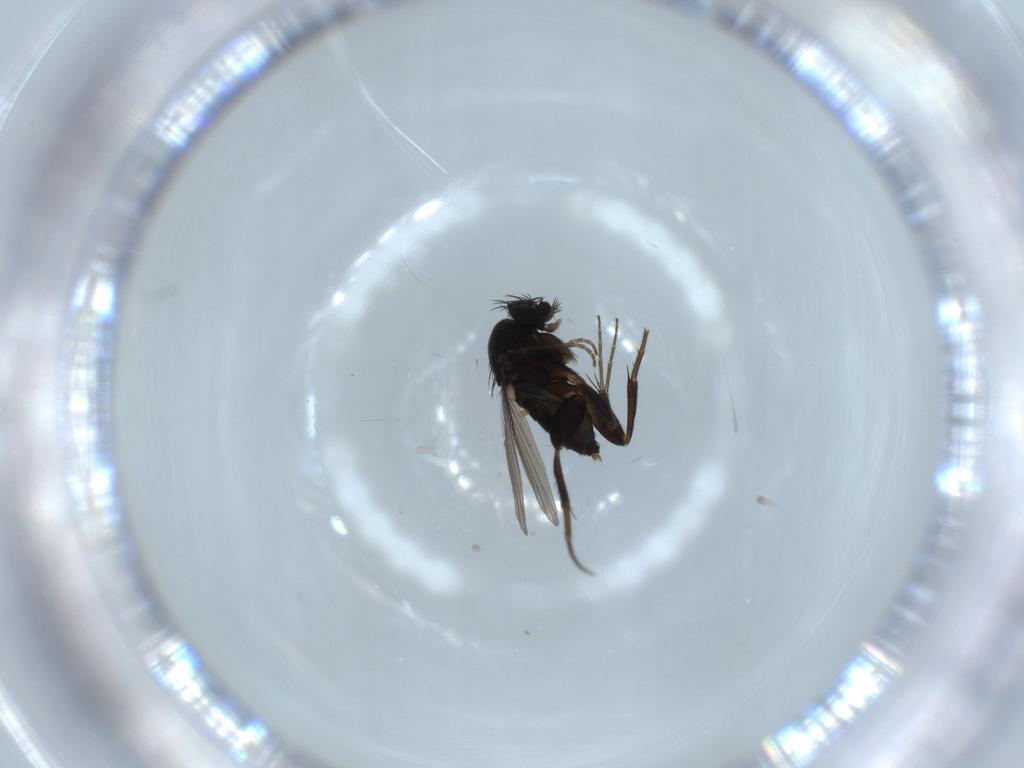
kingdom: Animalia
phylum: Arthropoda
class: Insecta
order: Diptera
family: Phoridae
